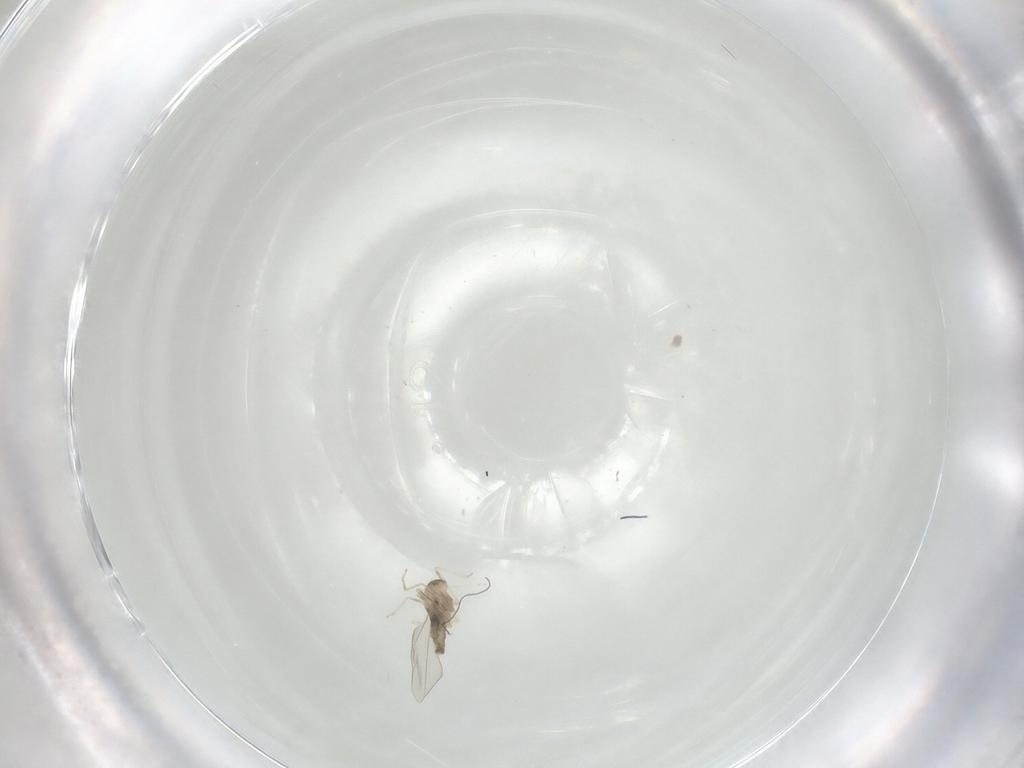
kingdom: Animalia
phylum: Arthropoda
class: Insecta
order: Diptera
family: Cecidomyiidae
